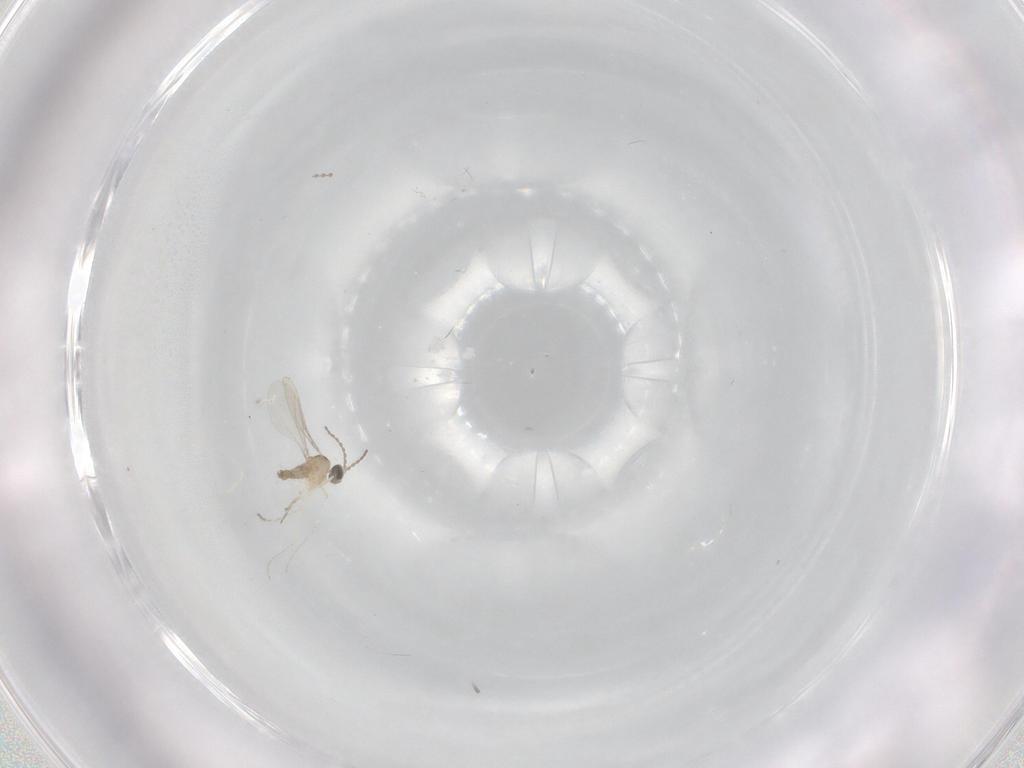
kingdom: Animalia
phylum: Arthropoda
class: Insecta
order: Diptera
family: Cecidomyiidae
